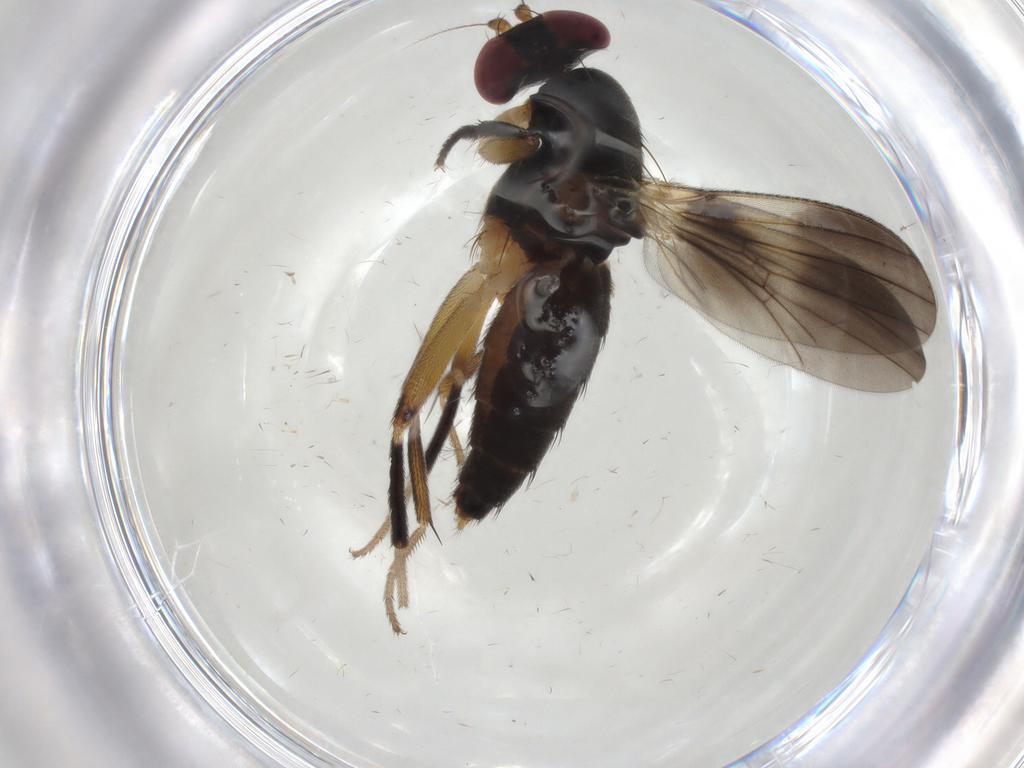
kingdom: Animalia
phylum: Arthropoda
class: Insecta
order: Diptera
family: Clusiidae
